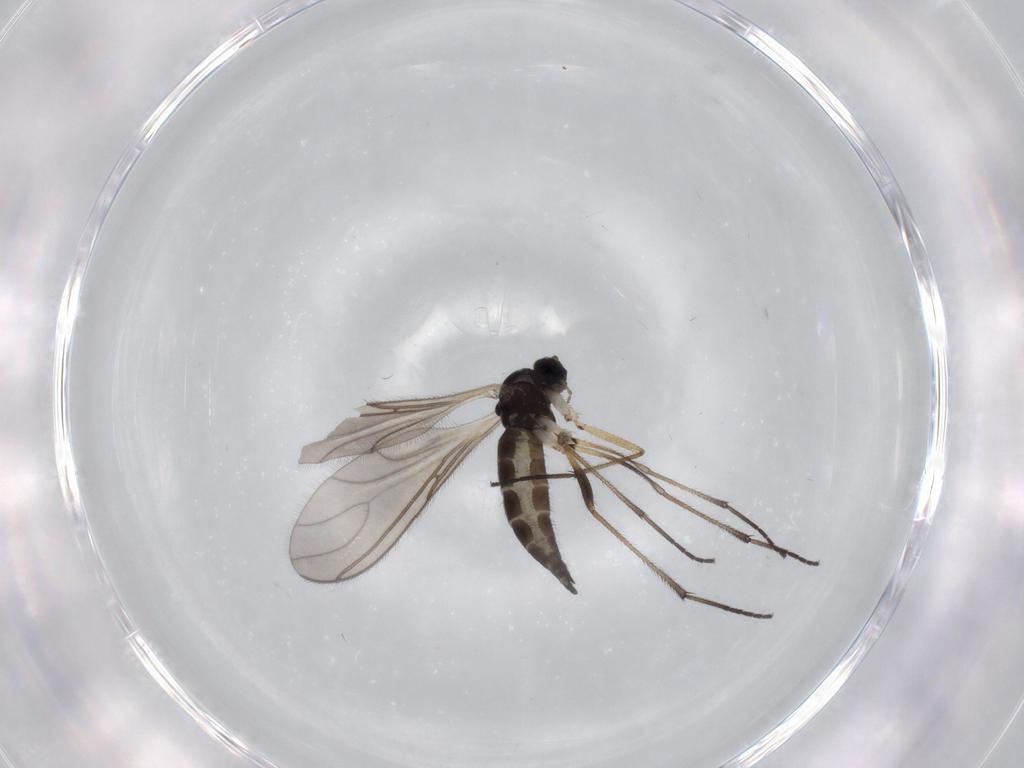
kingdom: Animalia
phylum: Arthropoda
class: Insecta
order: Diptera
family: Sciaridae
